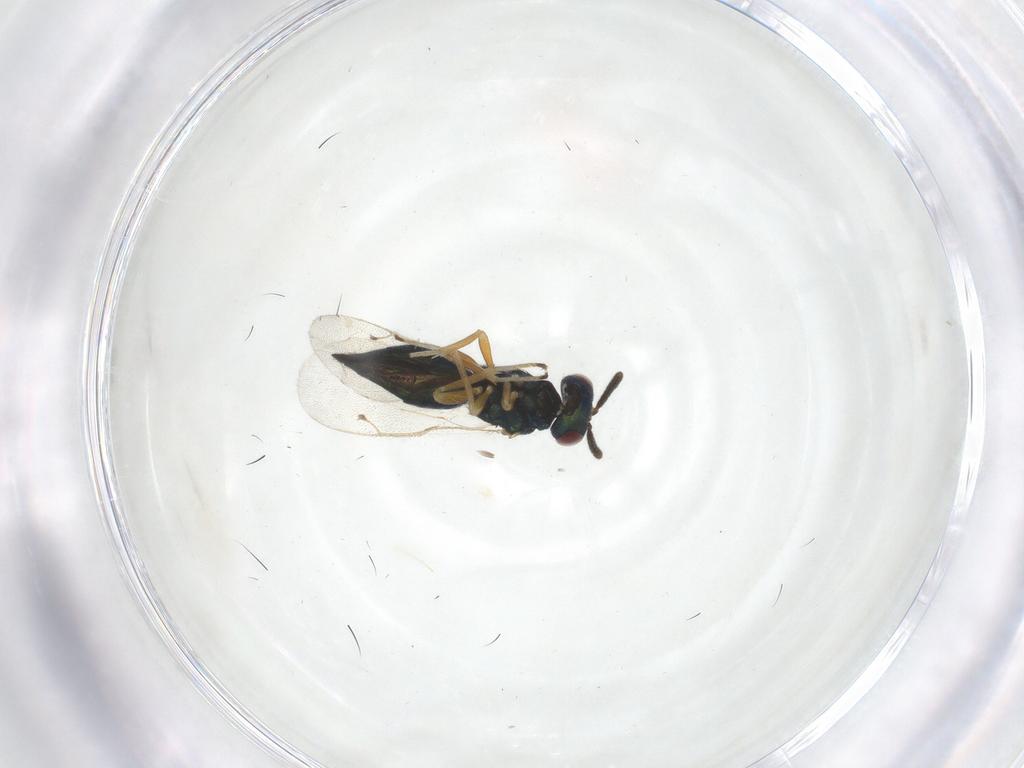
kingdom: Animalia
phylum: Arthropoda
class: Insecta
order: Hymenoptera
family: Pteromalidae
